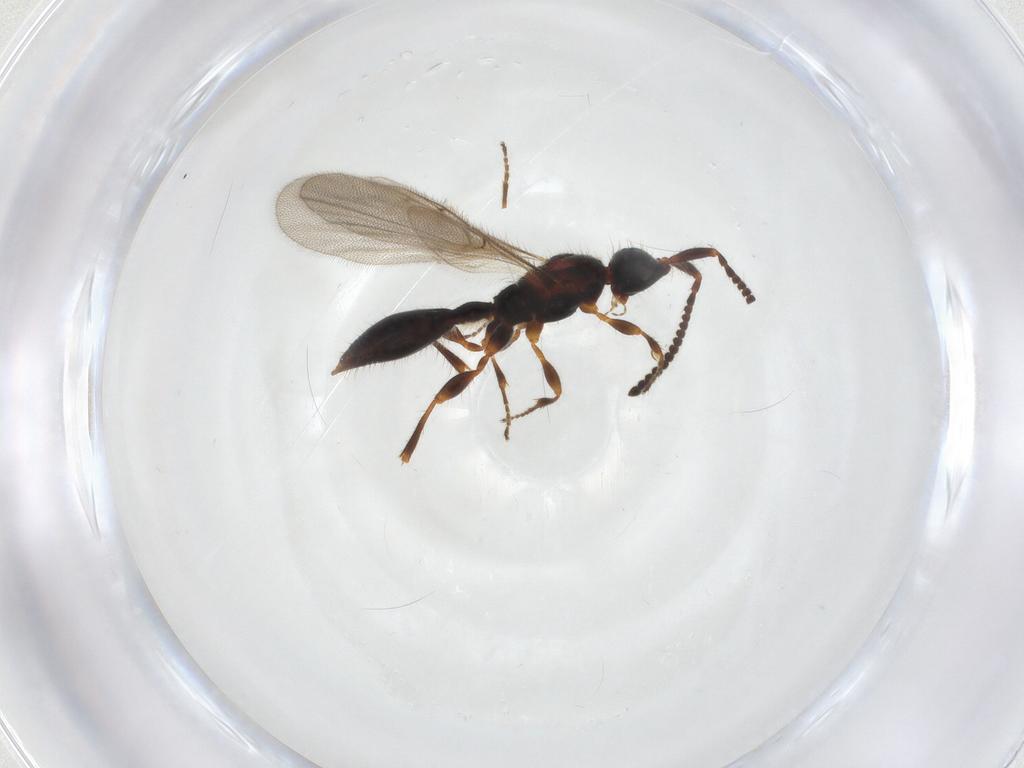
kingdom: Animalia
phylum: Arthropoda
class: Insecta
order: Hymenoptera
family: Diapriidae
